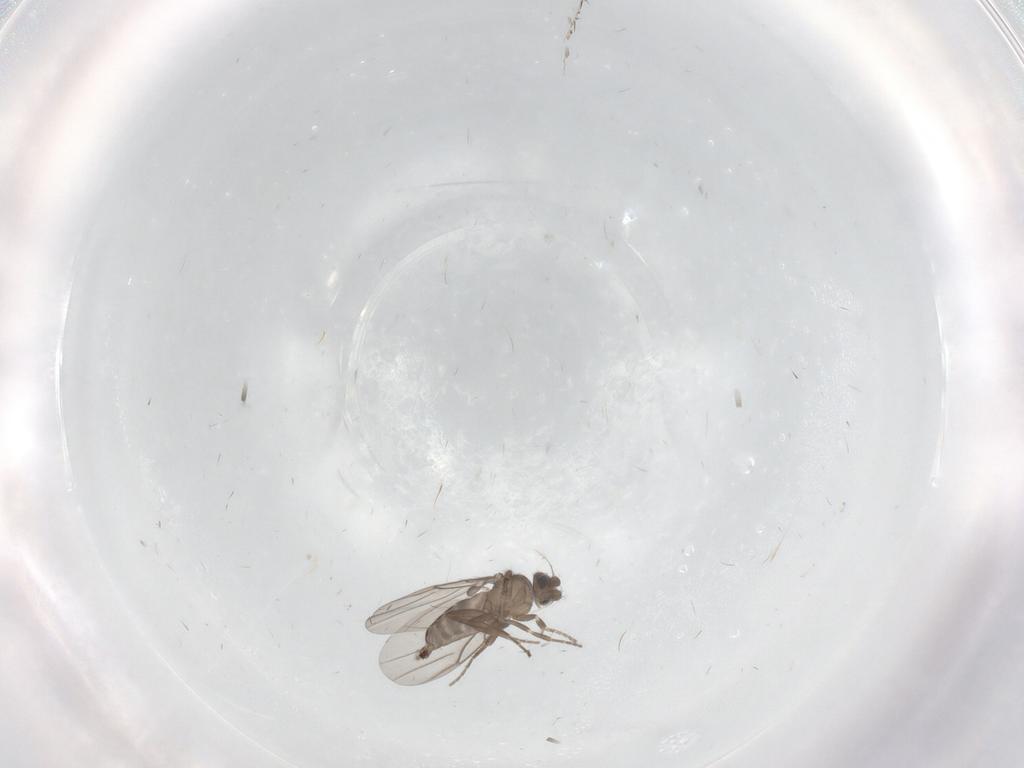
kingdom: Animalia
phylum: Arthropoda
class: Insecta
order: Diptera
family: Phoridae
